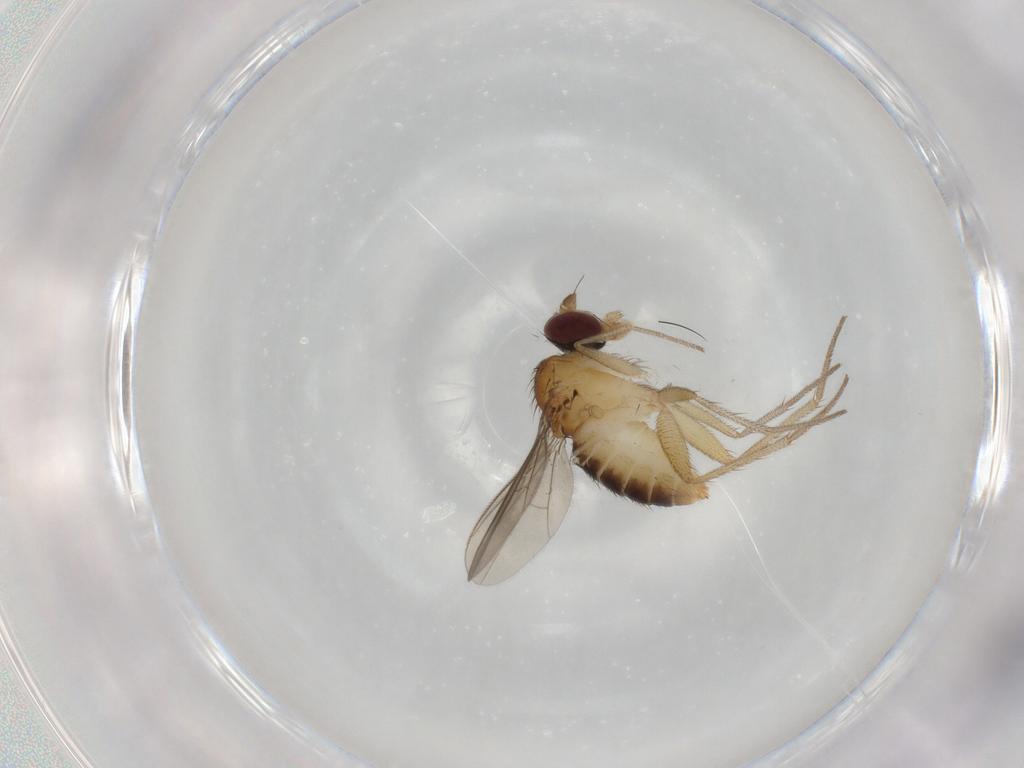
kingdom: Animalia
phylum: Arthropoda
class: Insecta
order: Diptera
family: Dolichopodidae
